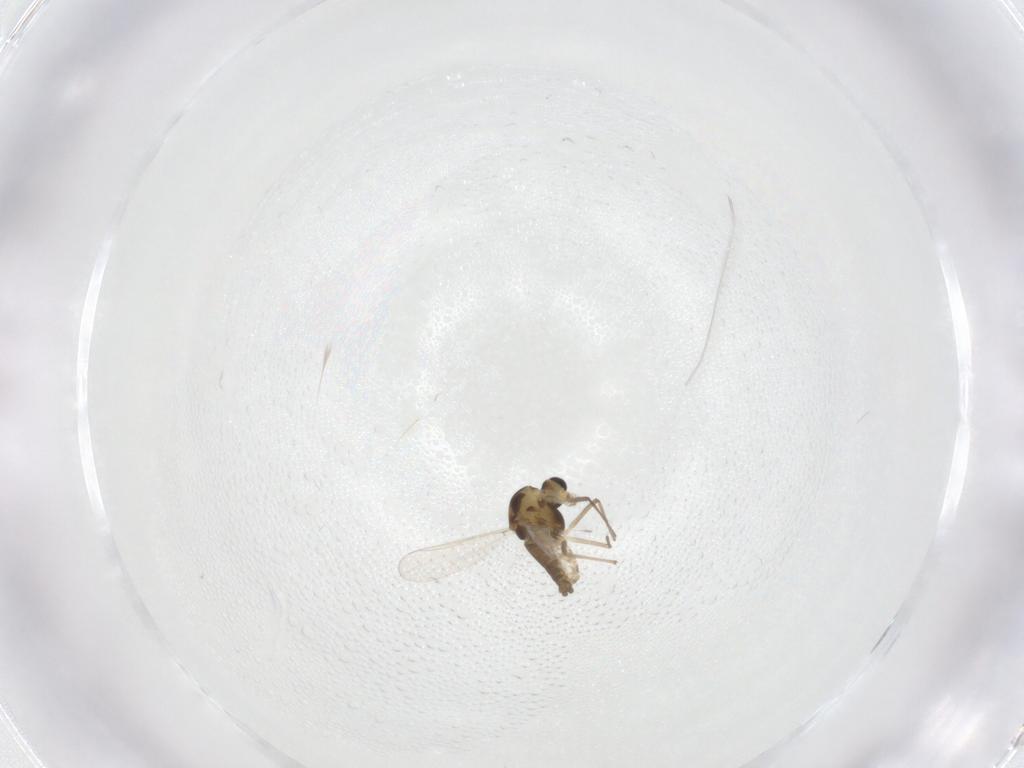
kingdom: Animalia
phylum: Arthropoda
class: Insecta
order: Diptera
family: Chironomidae
